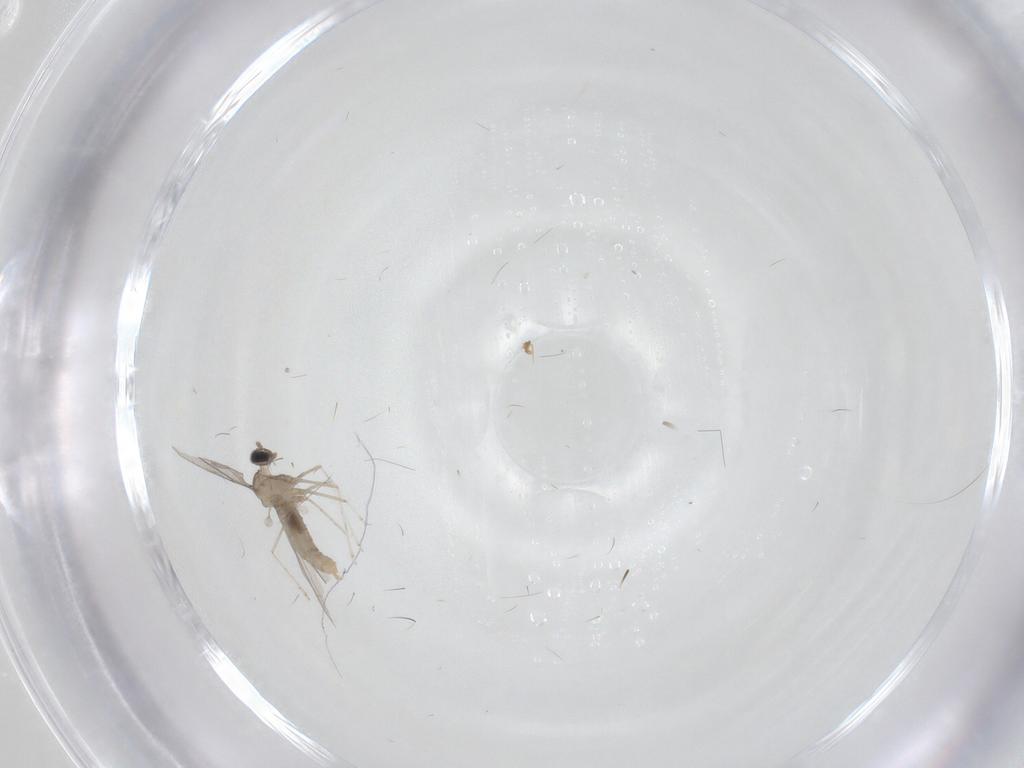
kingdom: Animalia
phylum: Arthropoda
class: Insecta
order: Diptera
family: Cecidomyiidae
